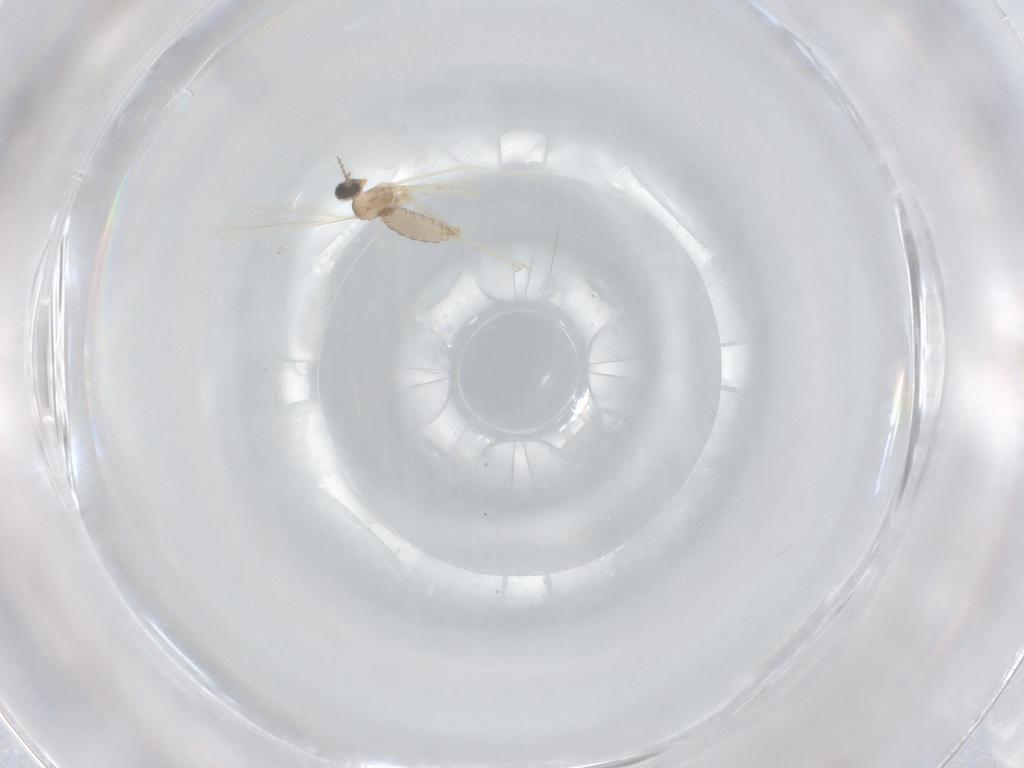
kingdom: Animalia
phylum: Arthropoda
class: Insecta
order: Diptera
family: Cecidomyiidae
